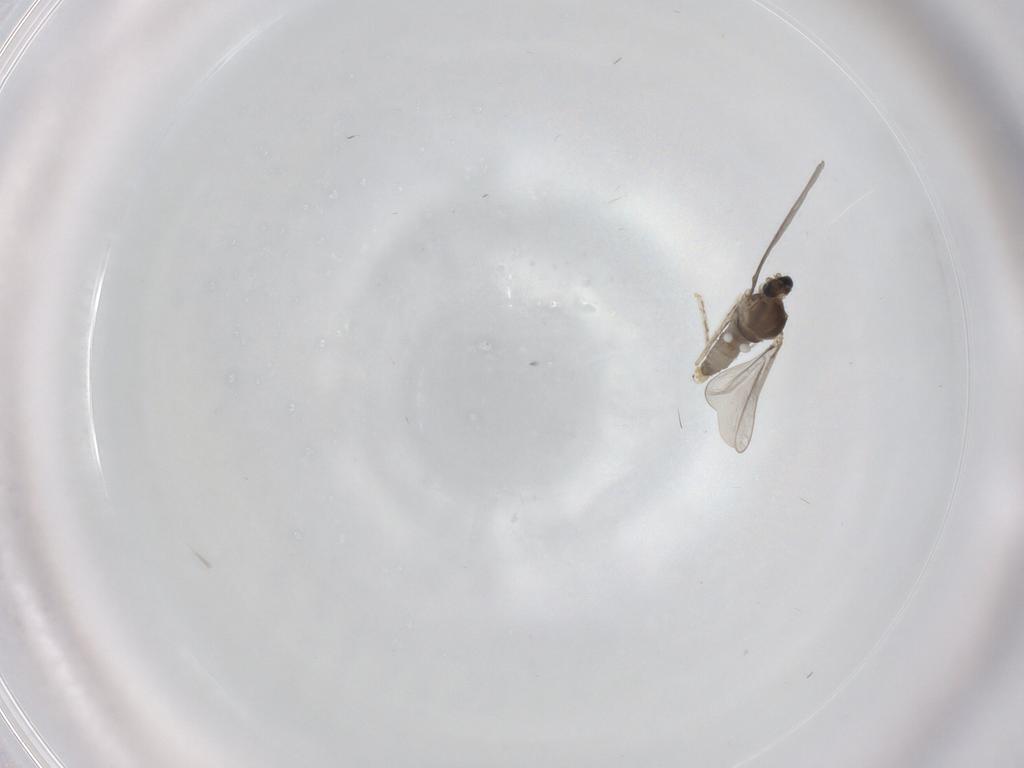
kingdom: Animalia
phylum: Arthropoda
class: Insecta
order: Diptera
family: Cecidomyiidae
